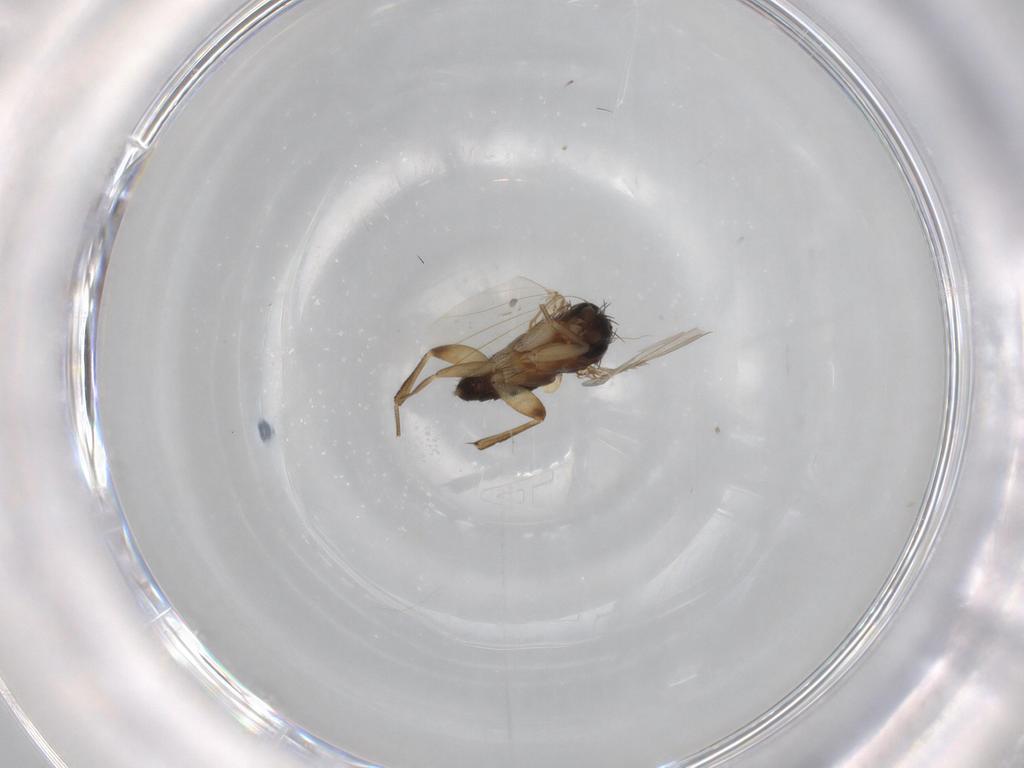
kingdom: Animalia
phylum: Arthropoda
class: Insecta
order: Diptera
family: Phoridae
